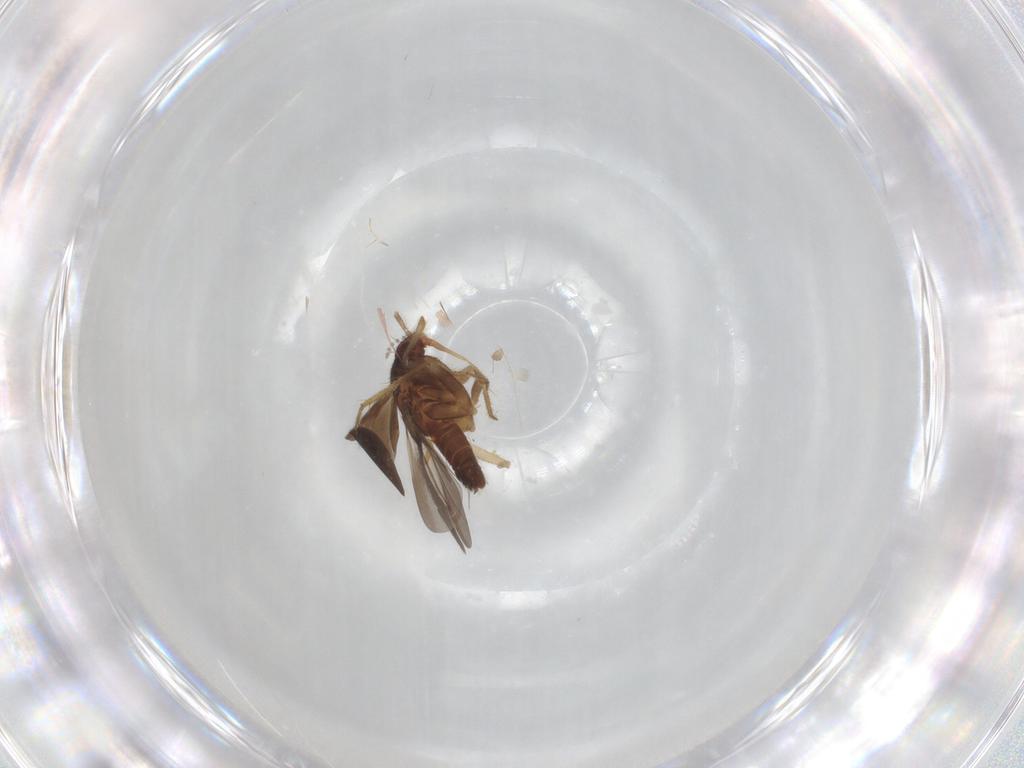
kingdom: Animalia
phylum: Arthropoda
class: Insecta
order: Hemiptera
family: Ceratocombidae
